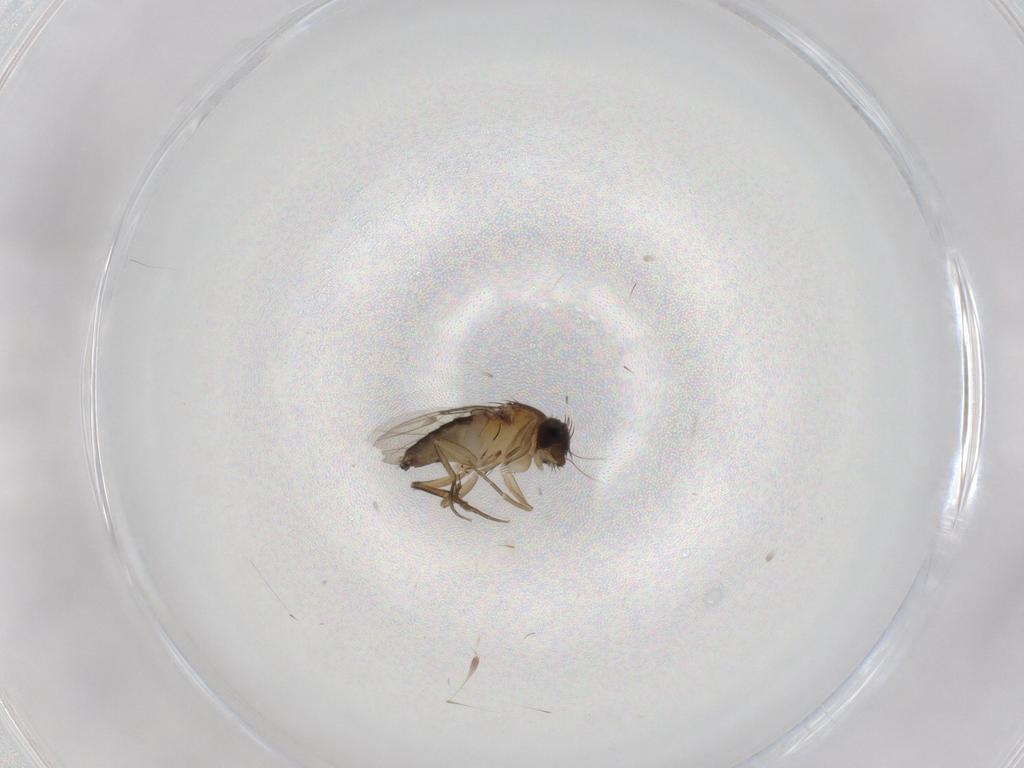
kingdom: Animalia
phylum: Arthropoda
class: Insecta
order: Diptera
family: Phoridae
